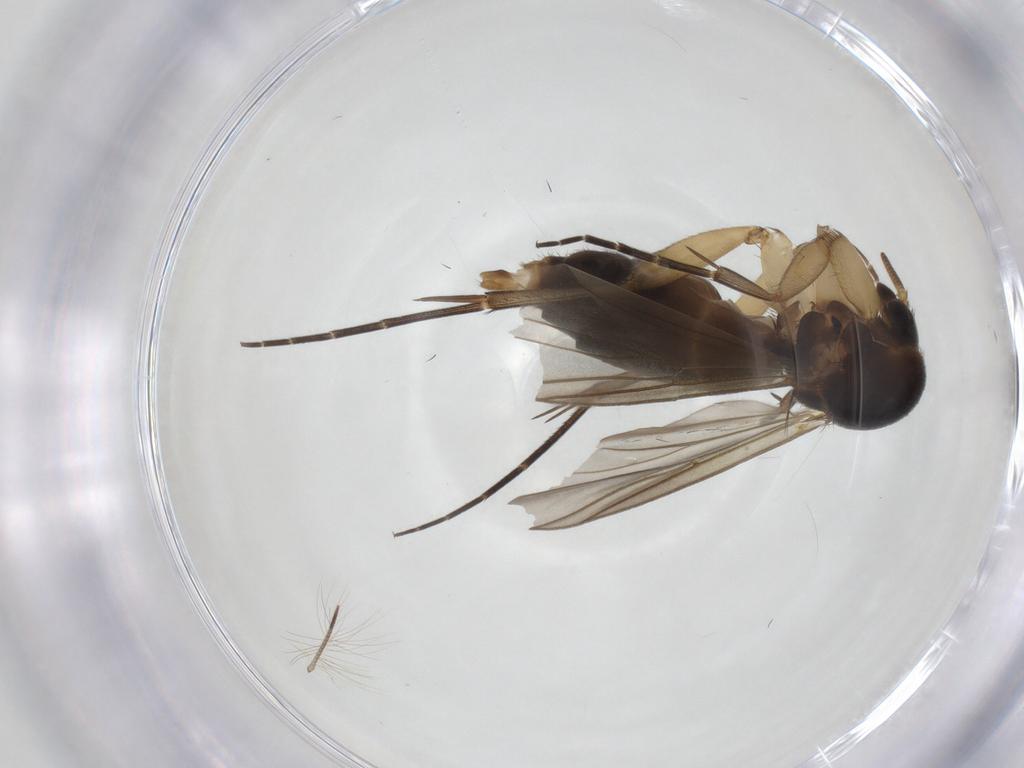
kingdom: Animalia
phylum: Arthropoda
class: Insecta
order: Diptera
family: Mycetophilidae
